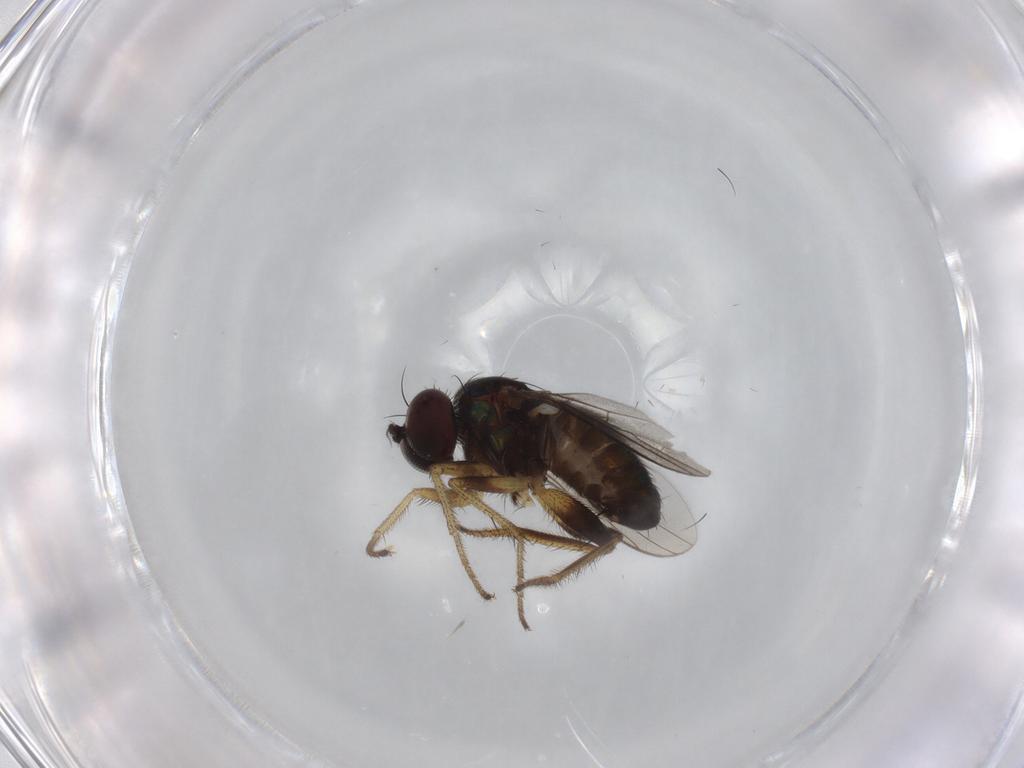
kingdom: Animalia
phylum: Arthropoda
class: Insecta
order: Diptera
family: Dolichopodidae
